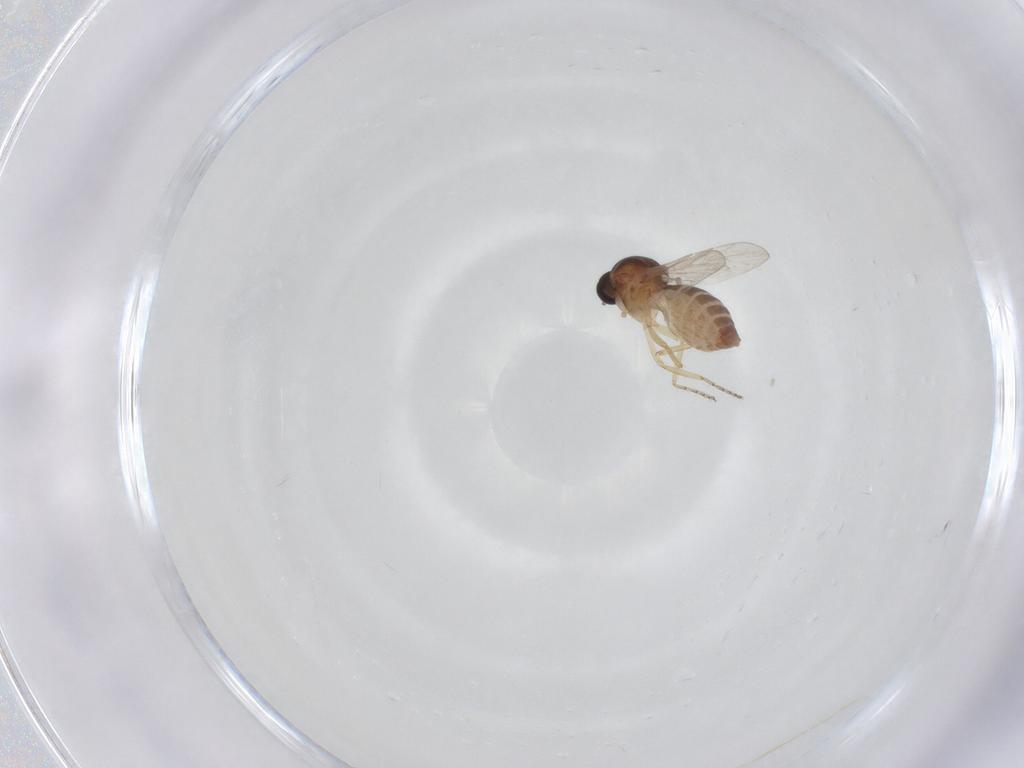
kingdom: Animalia
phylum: Arthropoda
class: Insecta
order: Diptera
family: Ceratopogonidae
